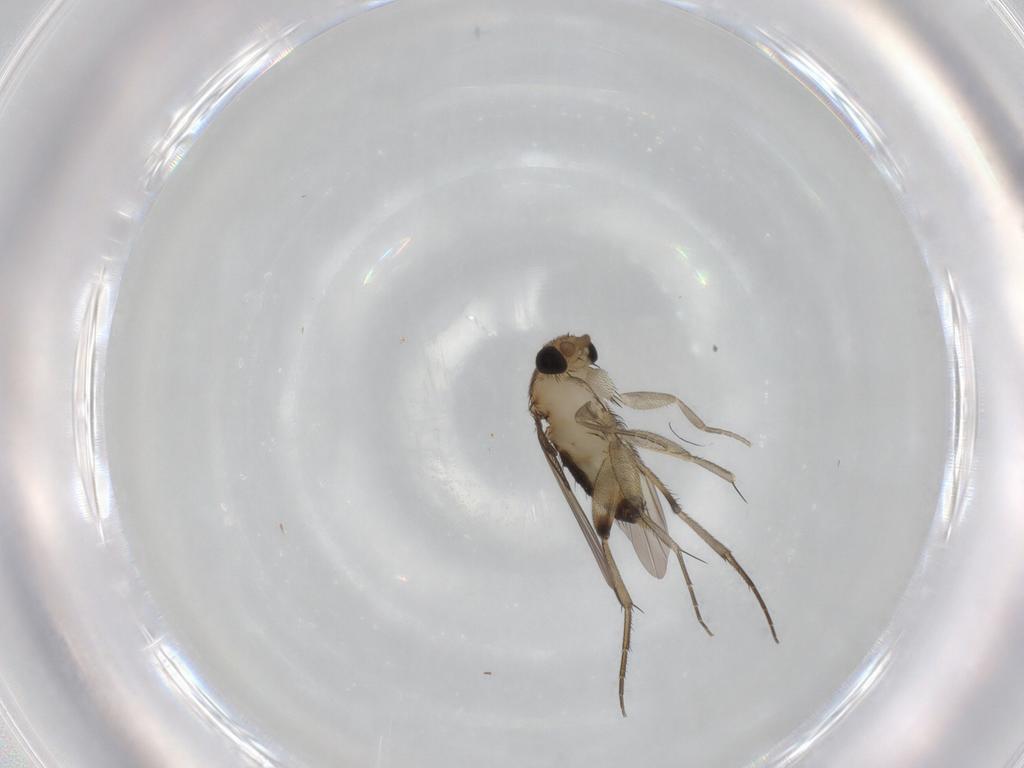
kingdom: Animalia
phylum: Arthropoda
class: Insecta
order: Diptera
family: Phoridae
